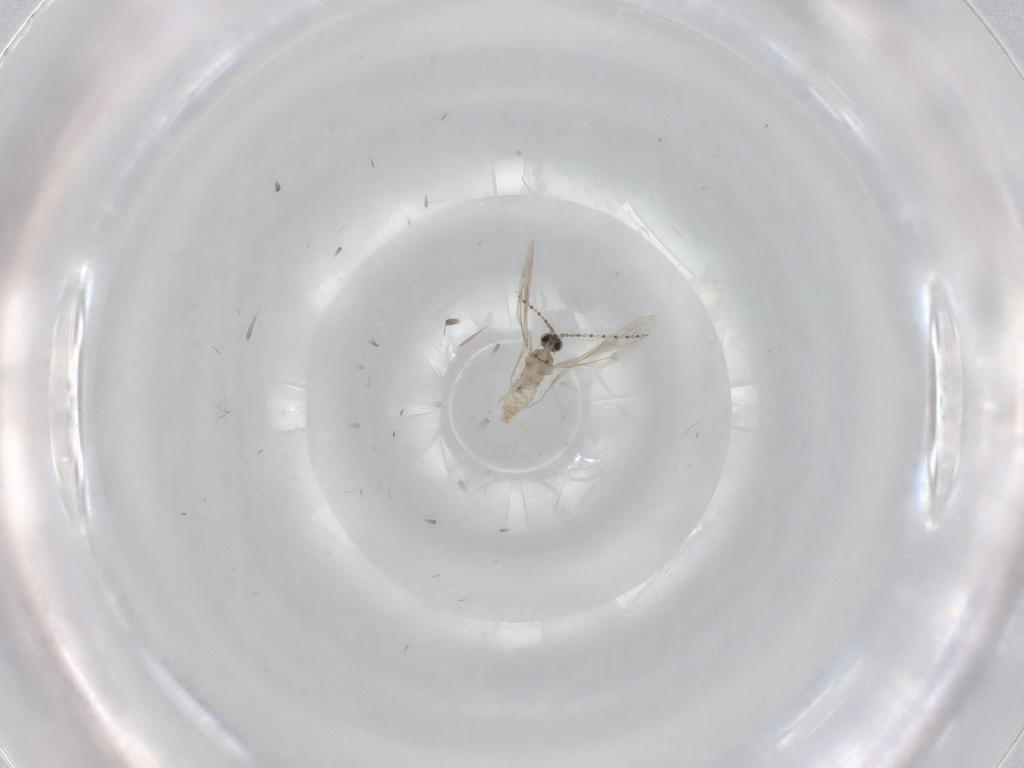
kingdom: Animalia
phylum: Arthropoda
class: Insecta
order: Diptera
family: Cecidomyiidae
